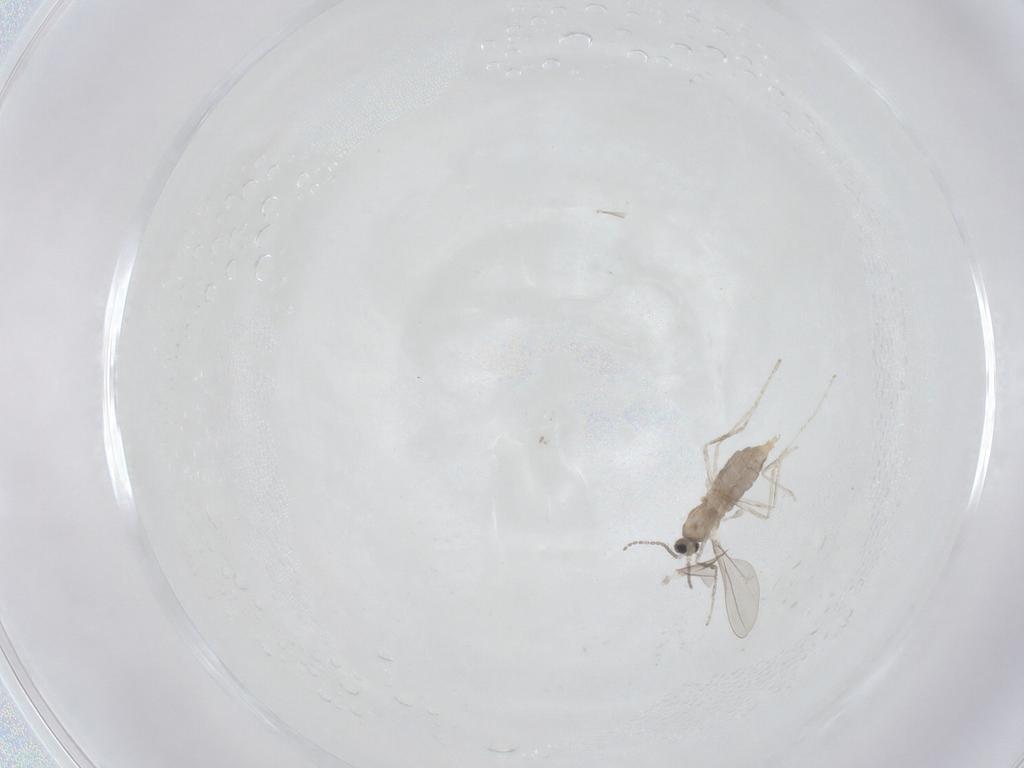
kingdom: Animalia
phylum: Arthropoda
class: Insecta
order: Diptera
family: Cecidomyiidae
